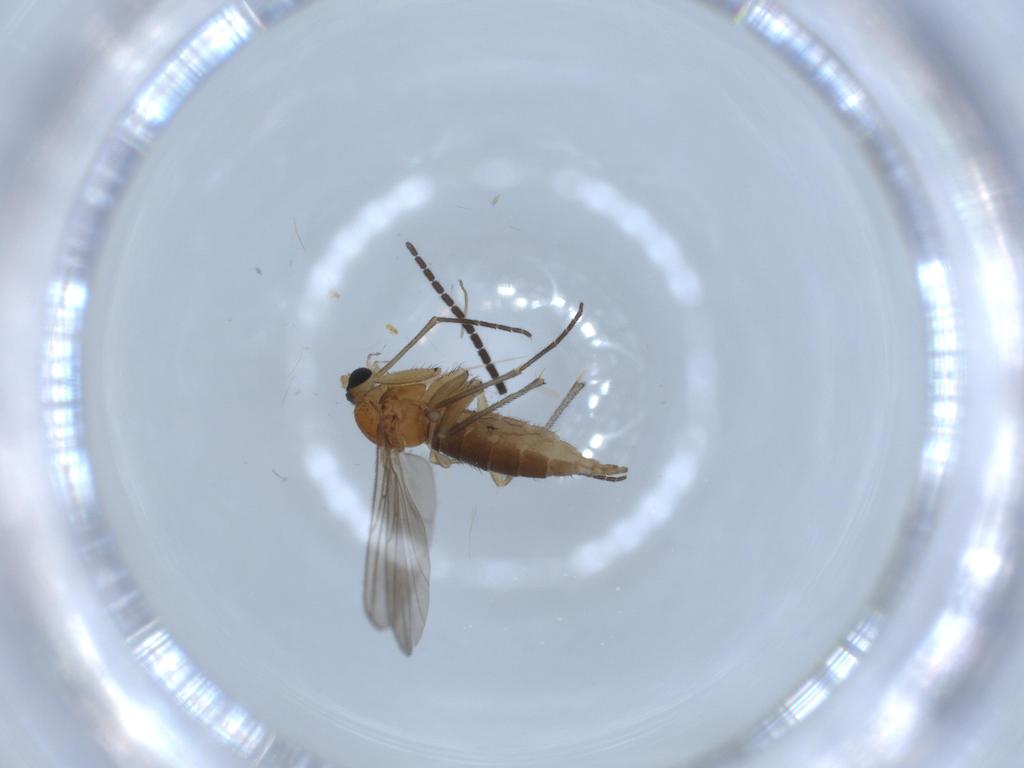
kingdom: Animalia
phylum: Arthropoda
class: Insecta
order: Diptera
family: Sciaridae
